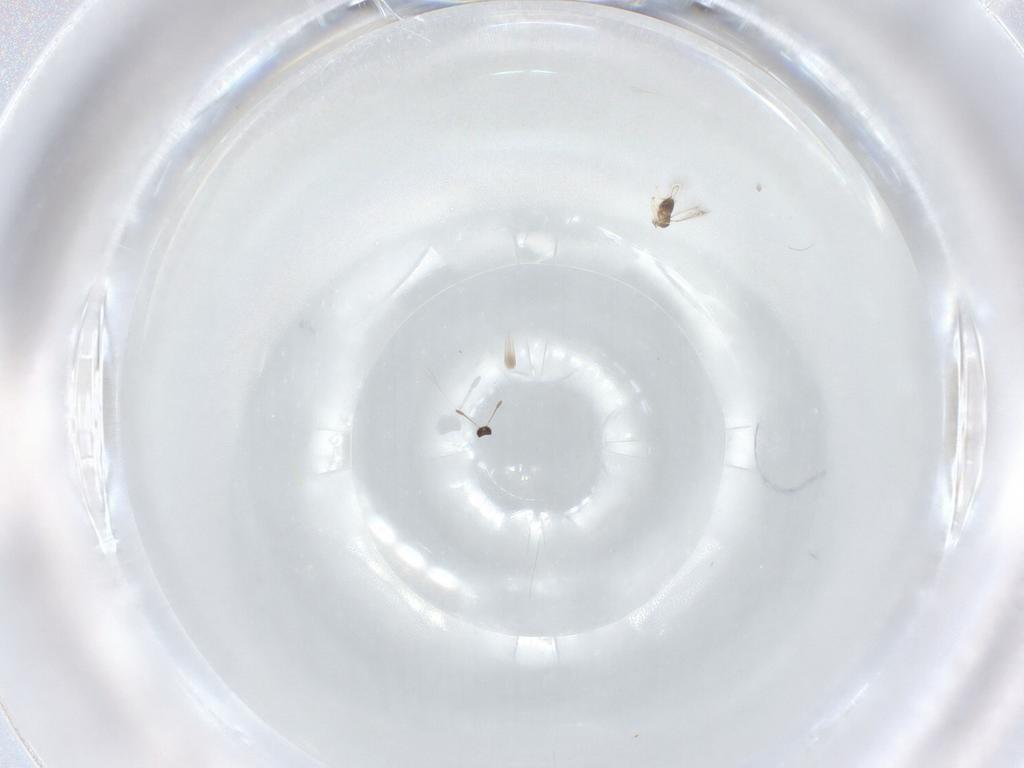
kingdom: Animalia
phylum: Arthropoda
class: Insecta
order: Hymenoptera
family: Mymaridae
